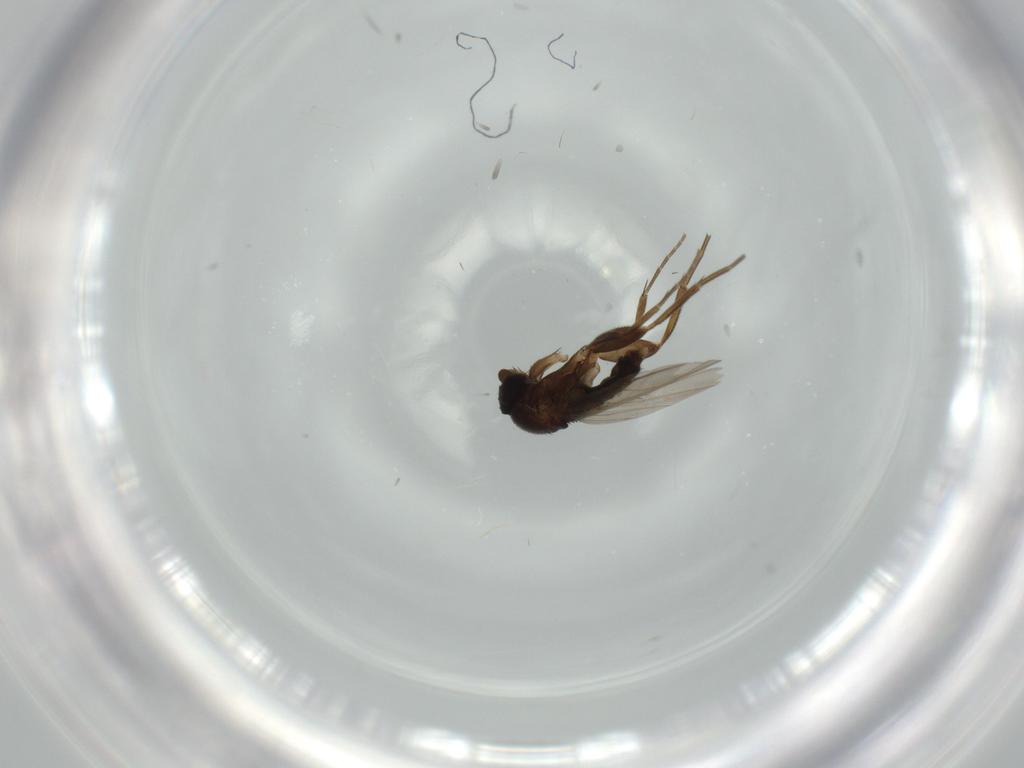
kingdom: Animalia
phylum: Arthropoda
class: Insecta
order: Diptera
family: Phoridae
